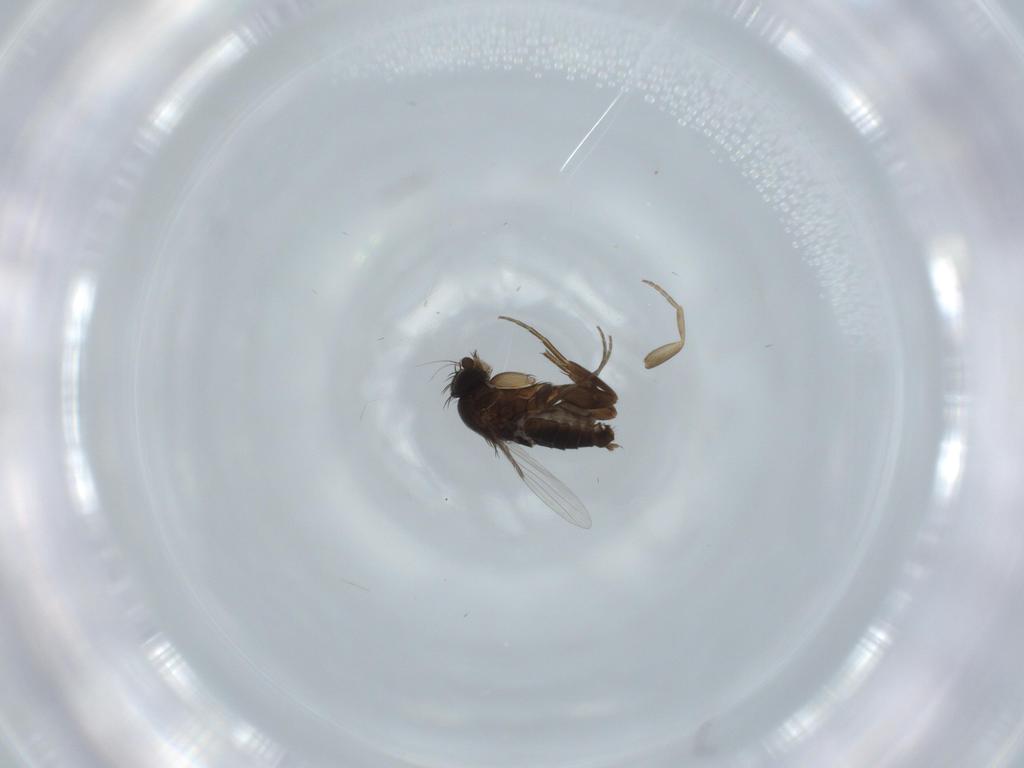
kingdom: Animalia
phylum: Arthropoda
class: Insecta
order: Diptera
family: Phoridae
